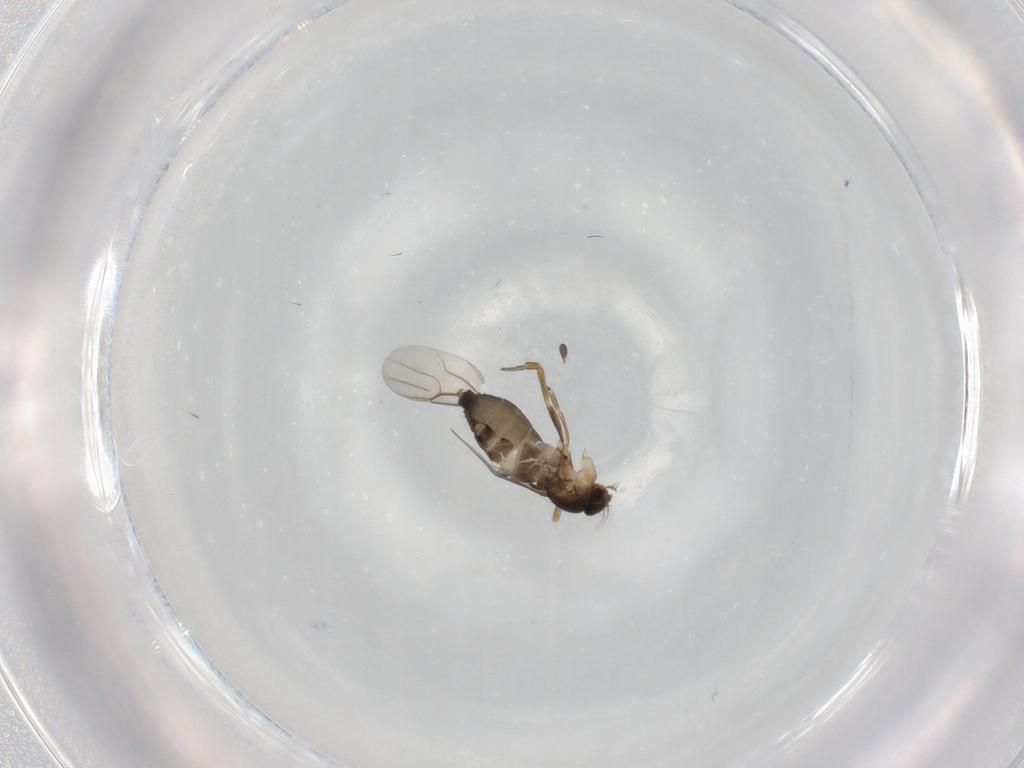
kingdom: Animalia
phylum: Arthropoda
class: Insecta
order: Diptera
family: Phoridae
